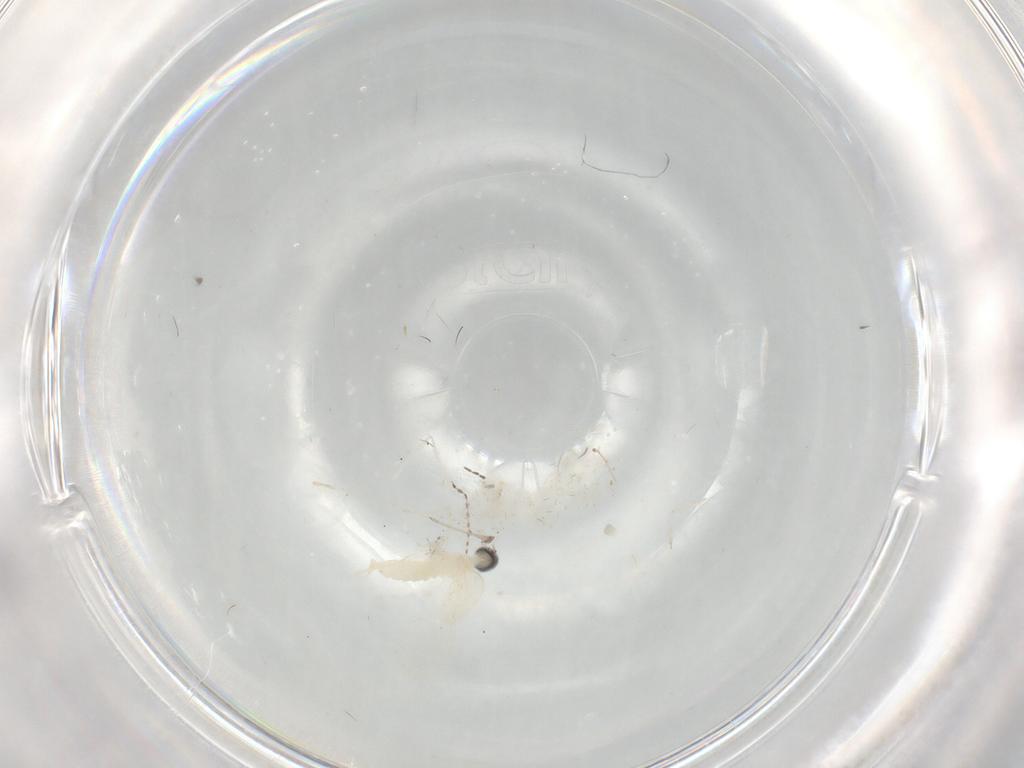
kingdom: Animalia
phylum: Arthropoda
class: Insecta
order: Diptera
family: Cecidomyiidae
